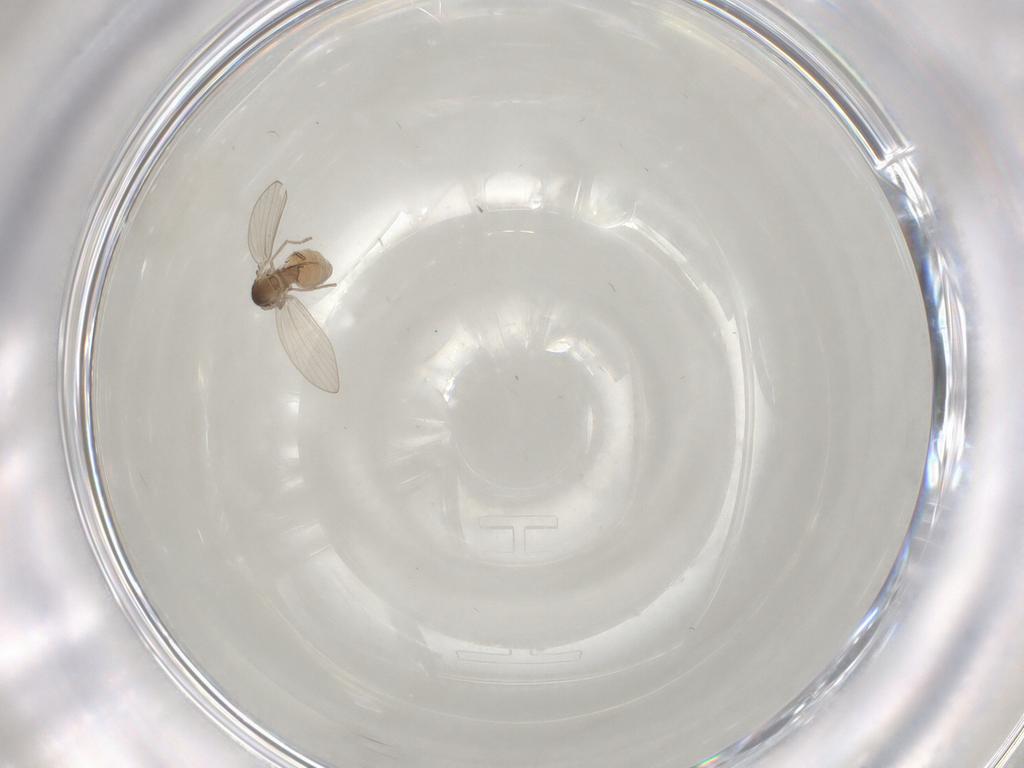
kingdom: Animalia
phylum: Arthropoda
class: Insecta
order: Diptera
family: Psychodidae
